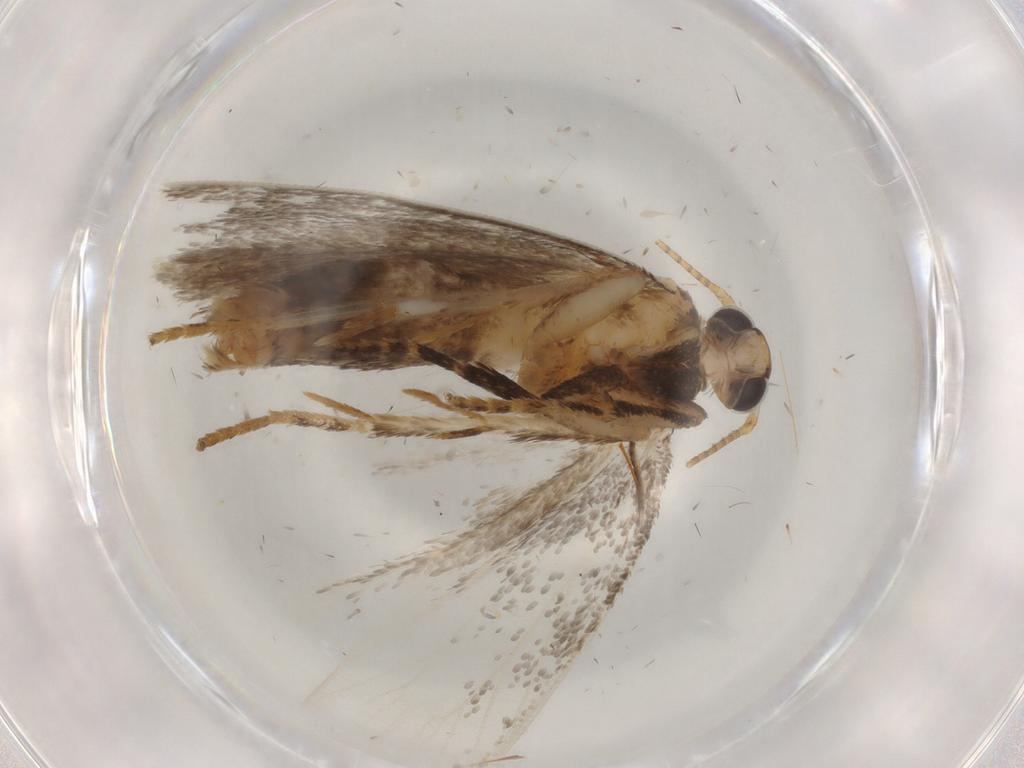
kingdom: Animalia
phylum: Arthropoda
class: Insecta
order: Lepidoptera
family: Gelechiidae
